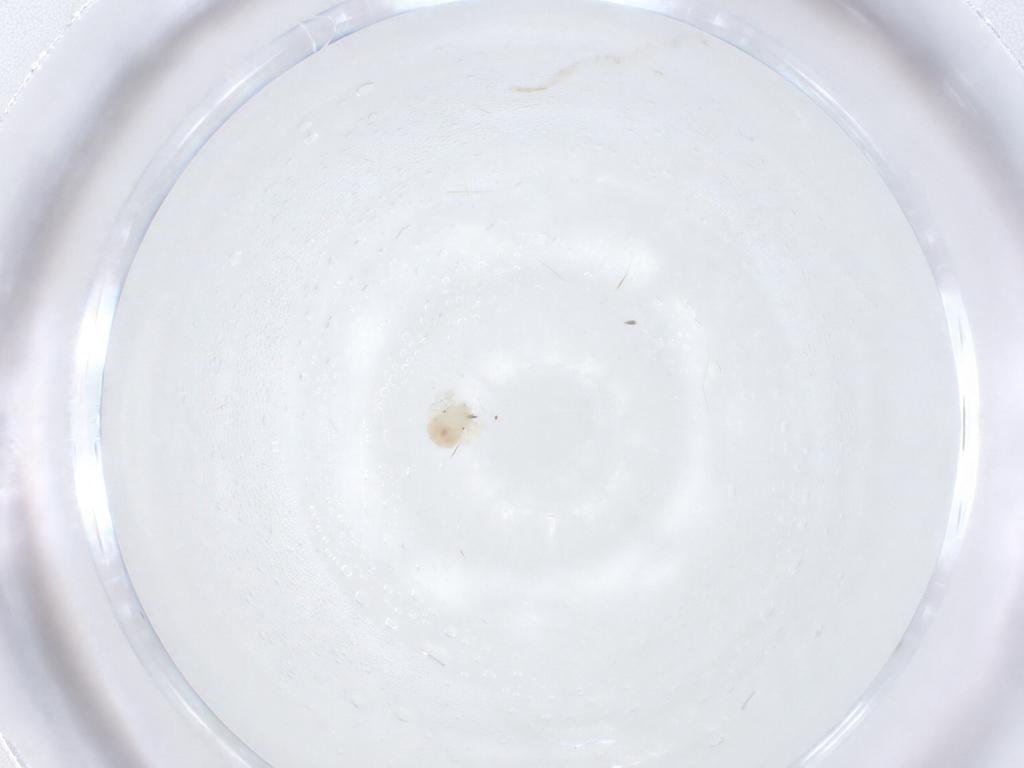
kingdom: Animalia
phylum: Arthropoda
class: Arachnida
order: Trombidiformes
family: Anystidae
